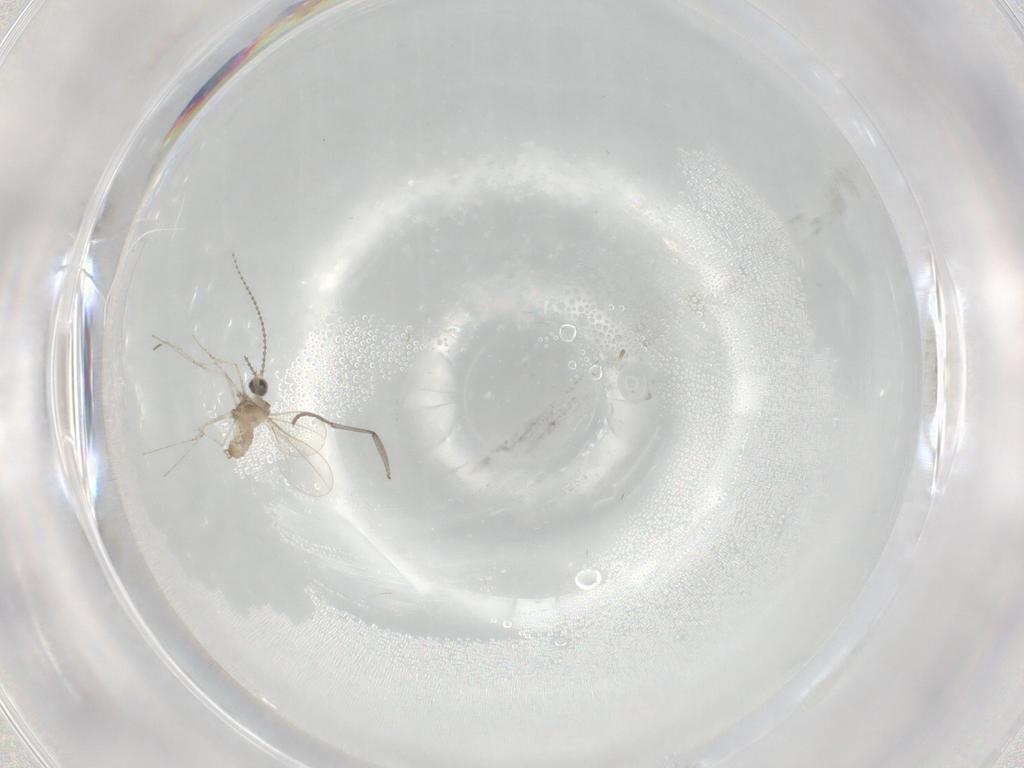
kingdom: Animalia
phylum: Arthropoda
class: Insecta
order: Diptera
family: Cecidomyiidae
